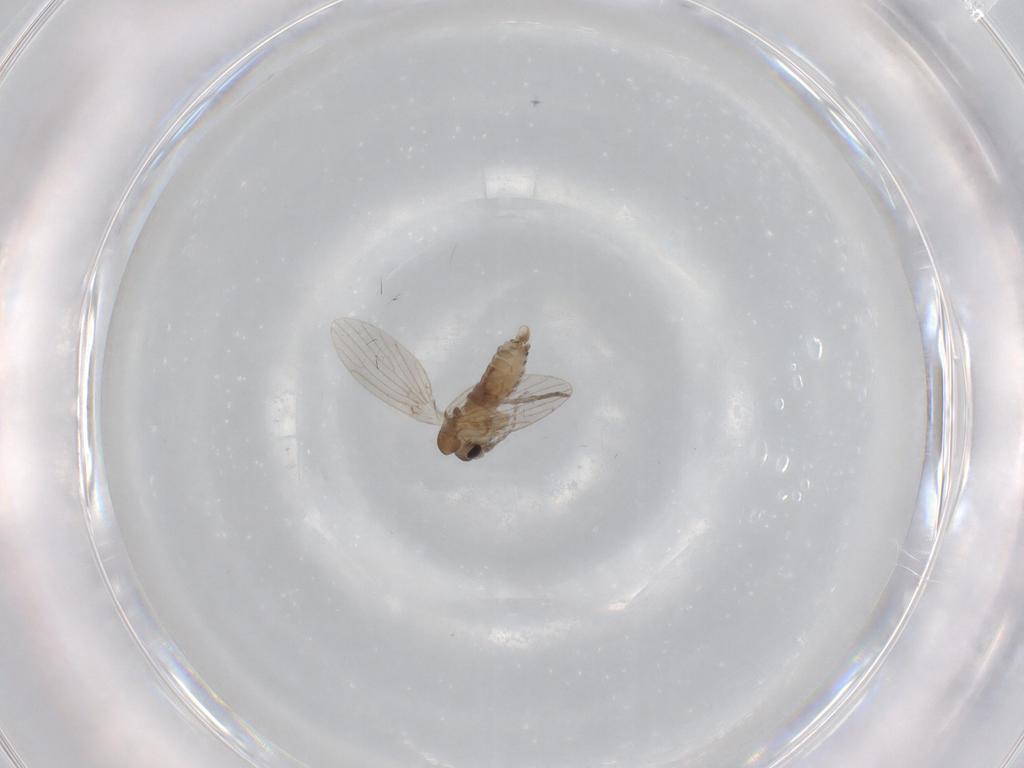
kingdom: Animalia
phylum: Arthropoda
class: Insecta
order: Diptera
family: Ceratopogonidae
